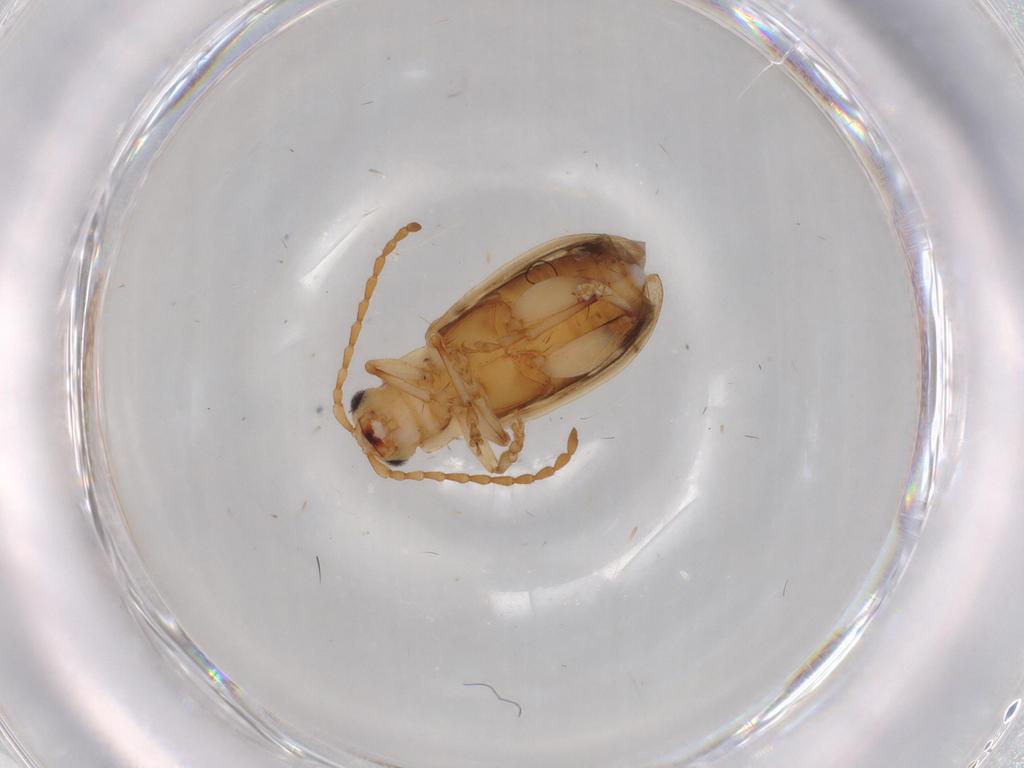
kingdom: Animalia
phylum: Arthropoda
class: Insecta
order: Coleoptera
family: Chrysomelidae
